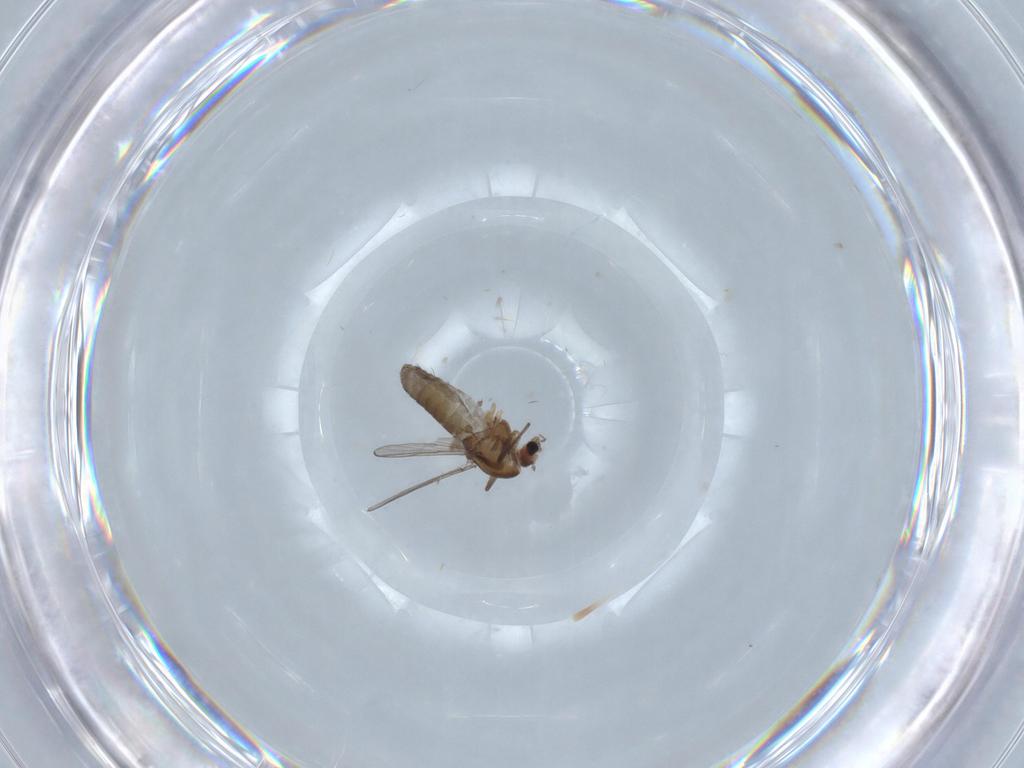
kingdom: Animalia
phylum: Arthropoda
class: Insecta
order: Diptera
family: Chironomidae
